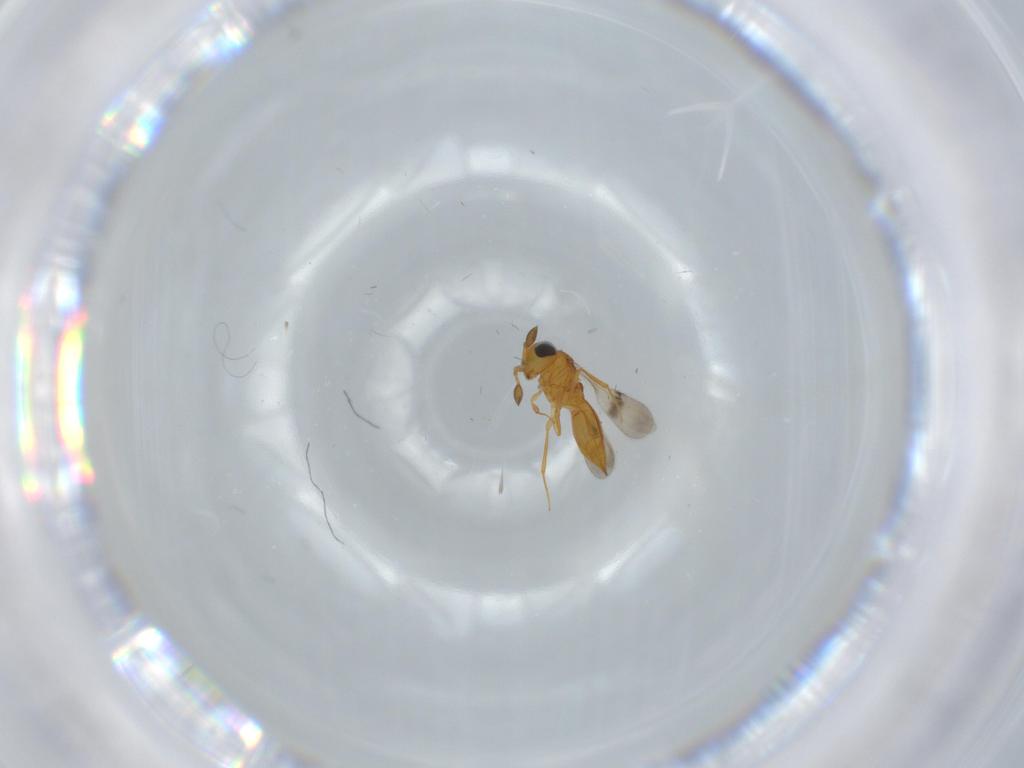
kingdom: Animalia
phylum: Arthropoda
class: Insecta
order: Hymenoptera
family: Scelionidae
